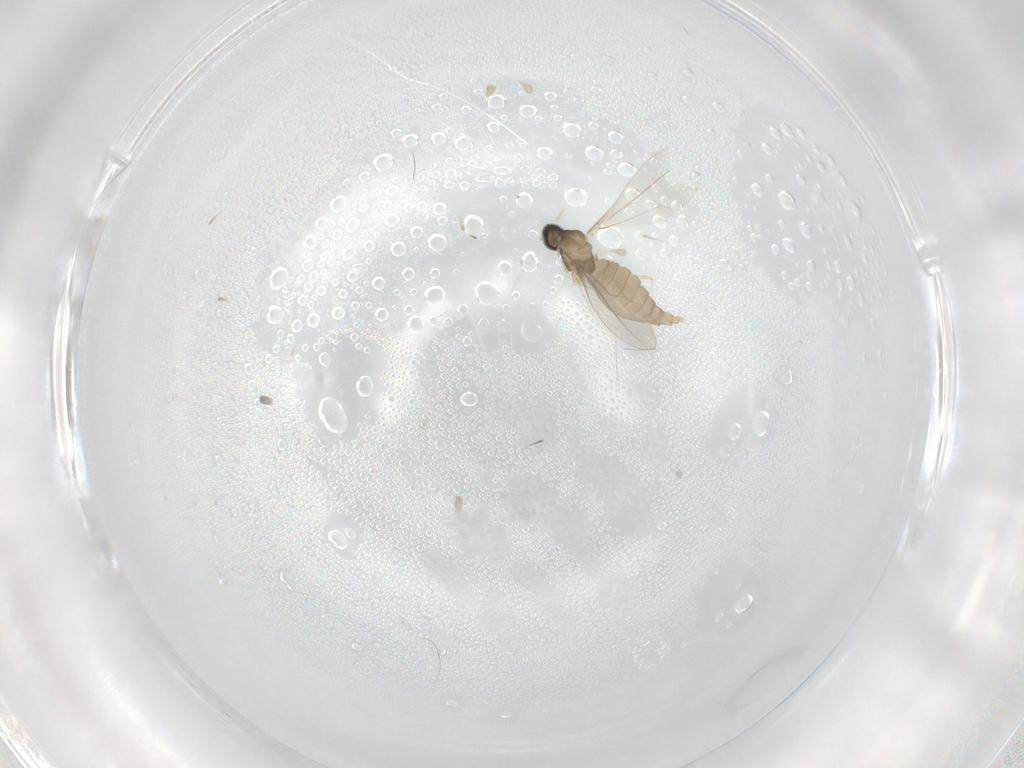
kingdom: Animalia
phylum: Arthropoda
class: Insecta
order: Diptera
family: Cecidomyiidae
